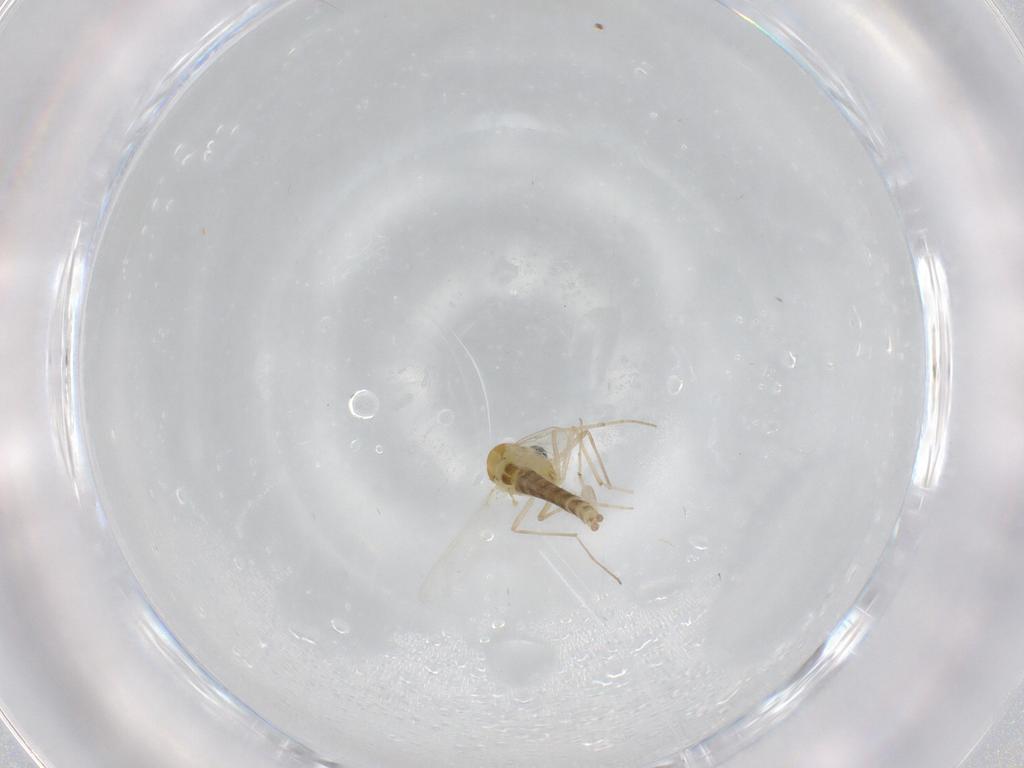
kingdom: Animalia
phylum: Arthropoda
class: Insecta
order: Diptera
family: Chironomidae
